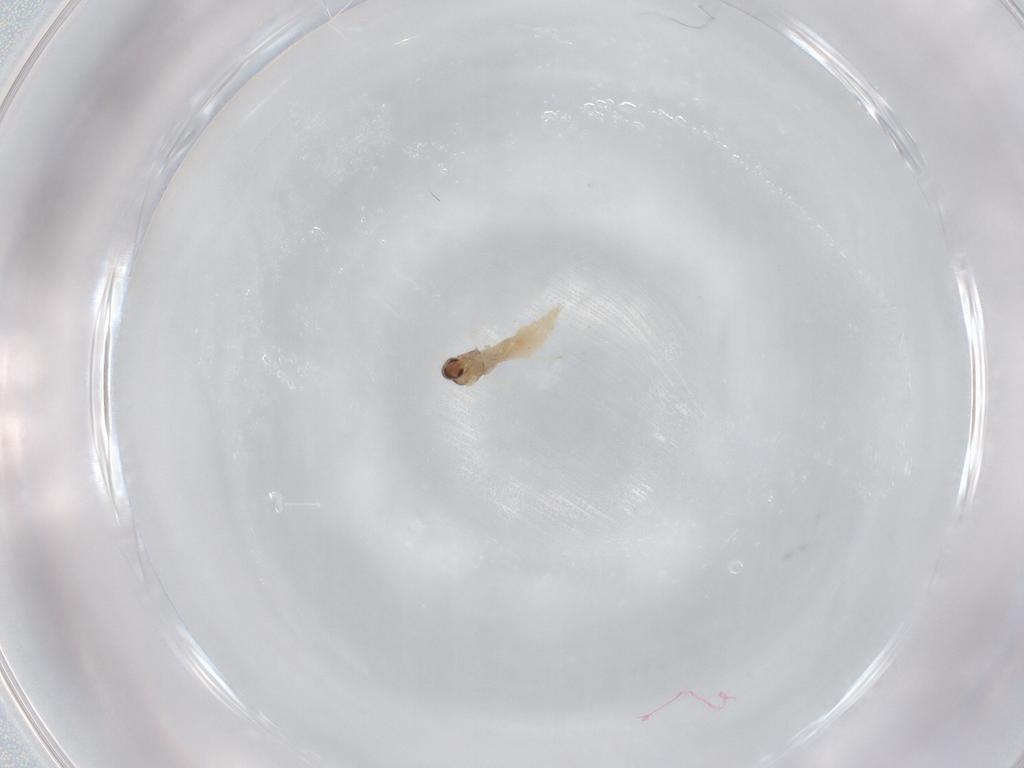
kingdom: Animalia
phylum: Arthropoda
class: Insecta
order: Diptera
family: Cecidomyiidae
